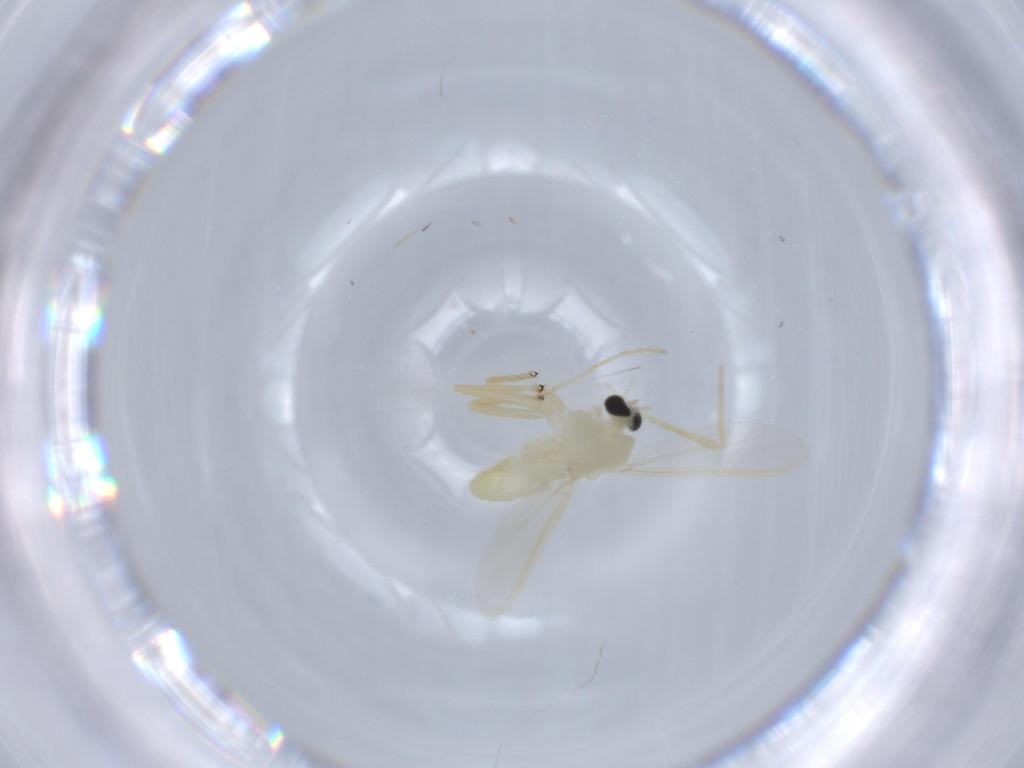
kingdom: Animalia
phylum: Arthropoda
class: Insecta
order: Diptera
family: Chironomidae
